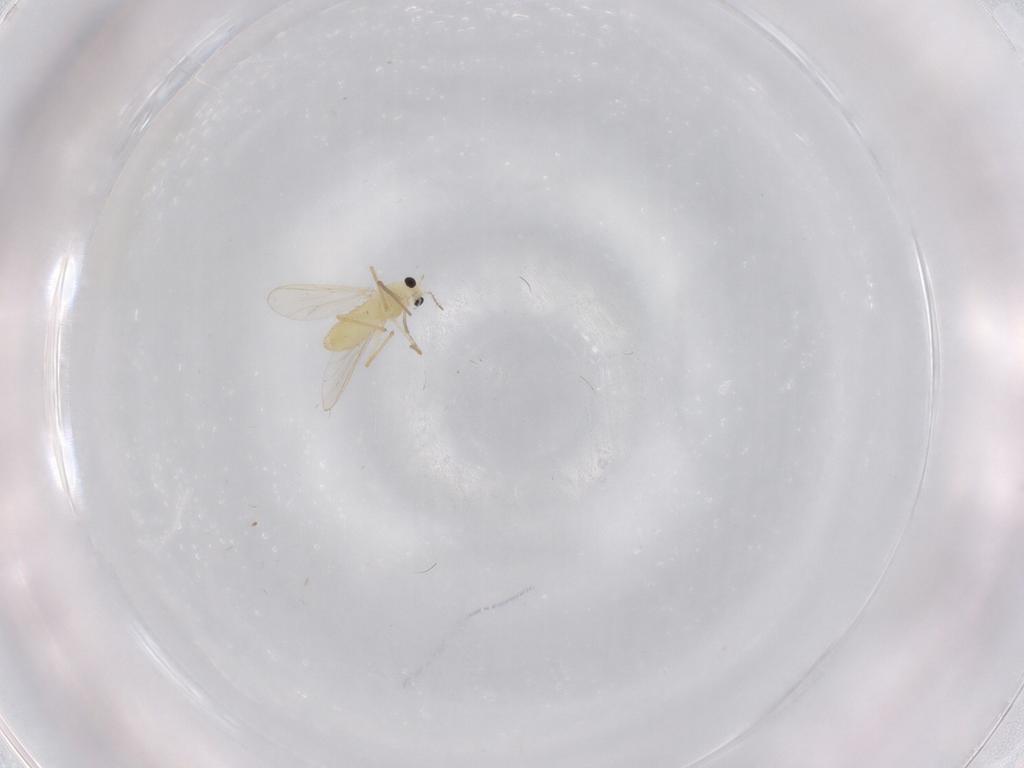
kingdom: Animalia
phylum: Arthropoda
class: Insecta
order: Diptera
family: Chironomidae
